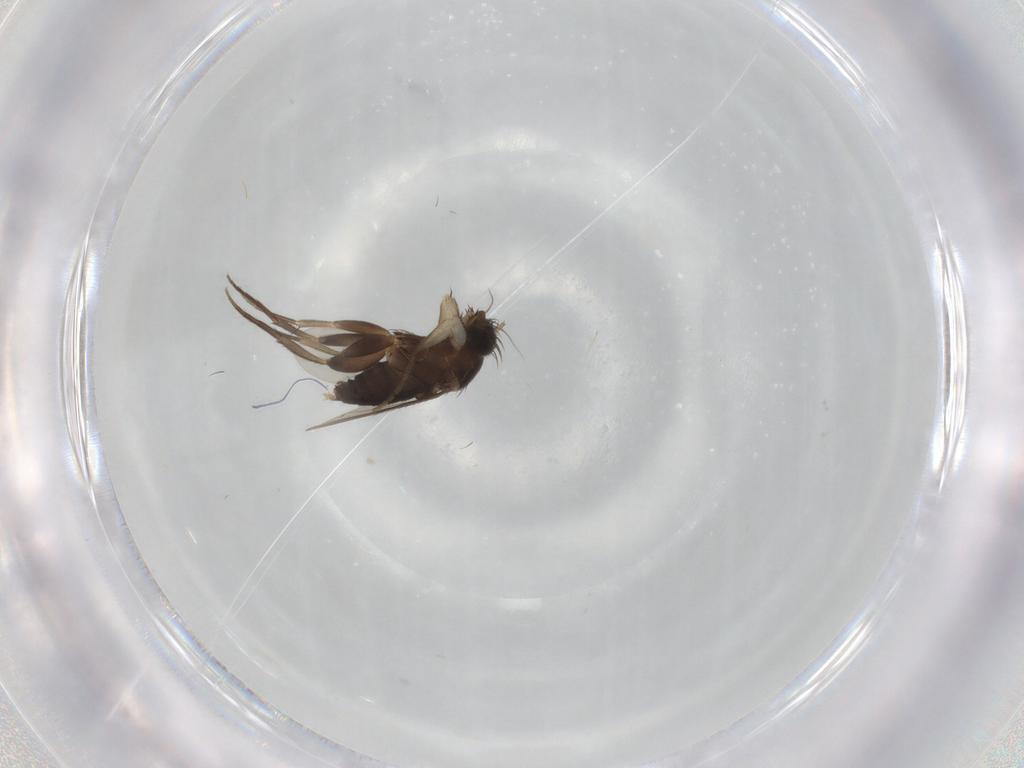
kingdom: Animalia
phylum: Arthropoda
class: Insecta
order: Diptera
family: Phoridae
